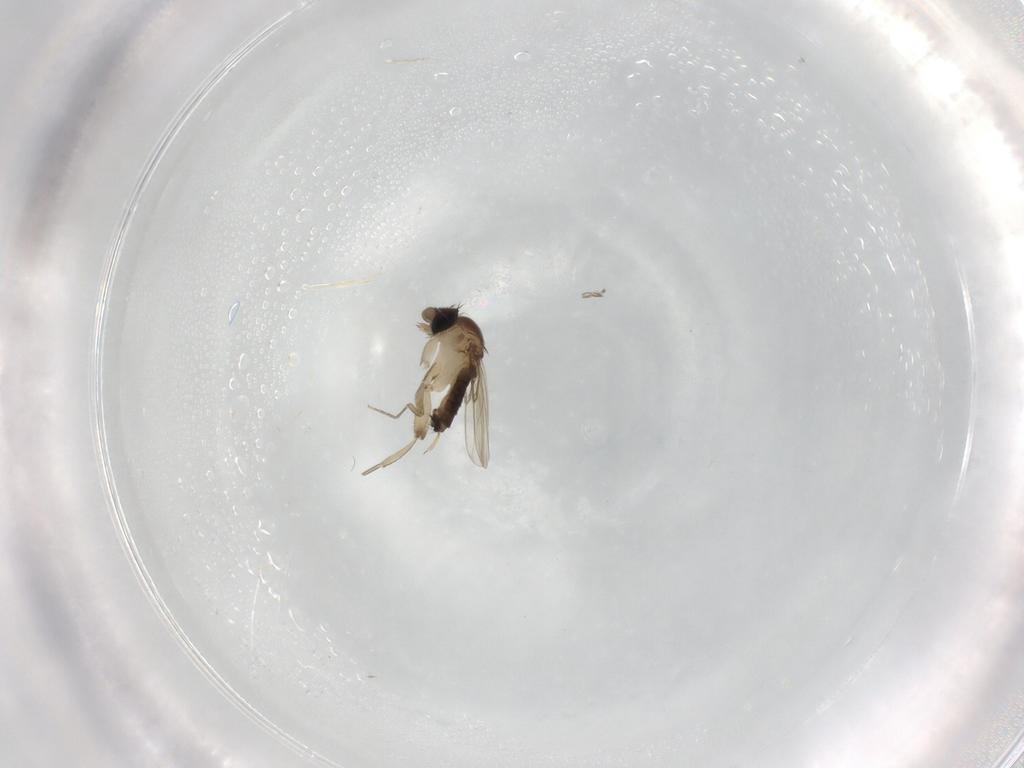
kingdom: Animalia
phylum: Arthropoda
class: Insecta
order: Diptera
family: Phoridae
